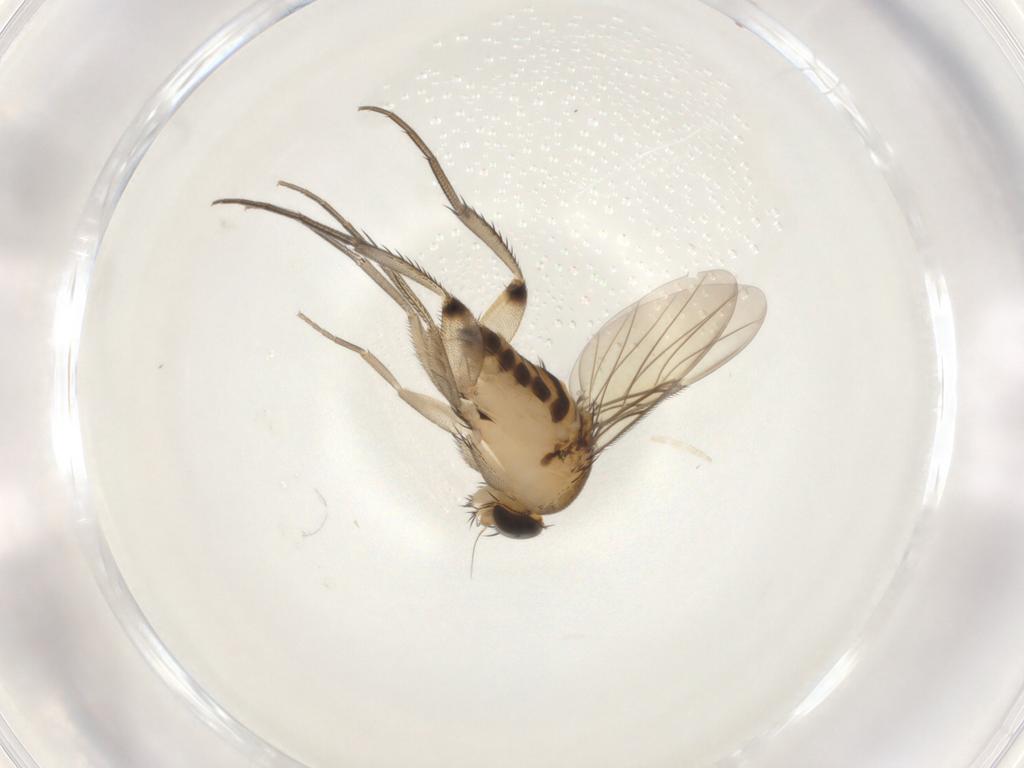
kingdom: Animalia
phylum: Arthropoda
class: Insecta
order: Diptera
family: Phoridae
